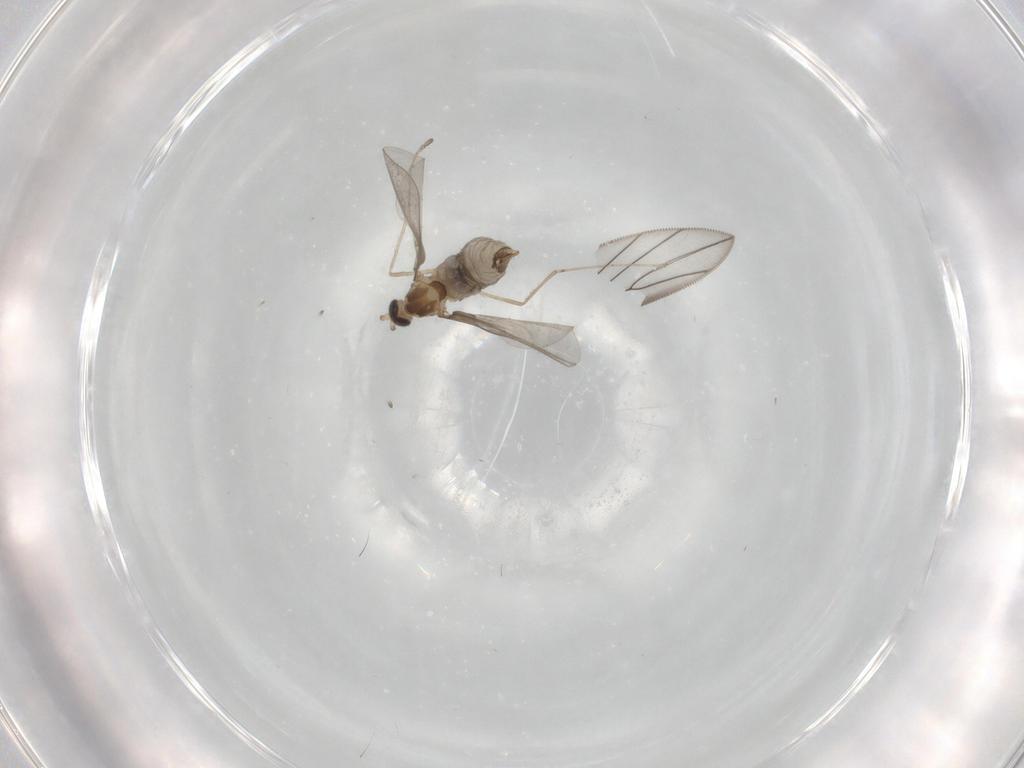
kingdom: Animalia
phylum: Arthropoda
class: Insecta
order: Diptera
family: Cecidomyiidae
